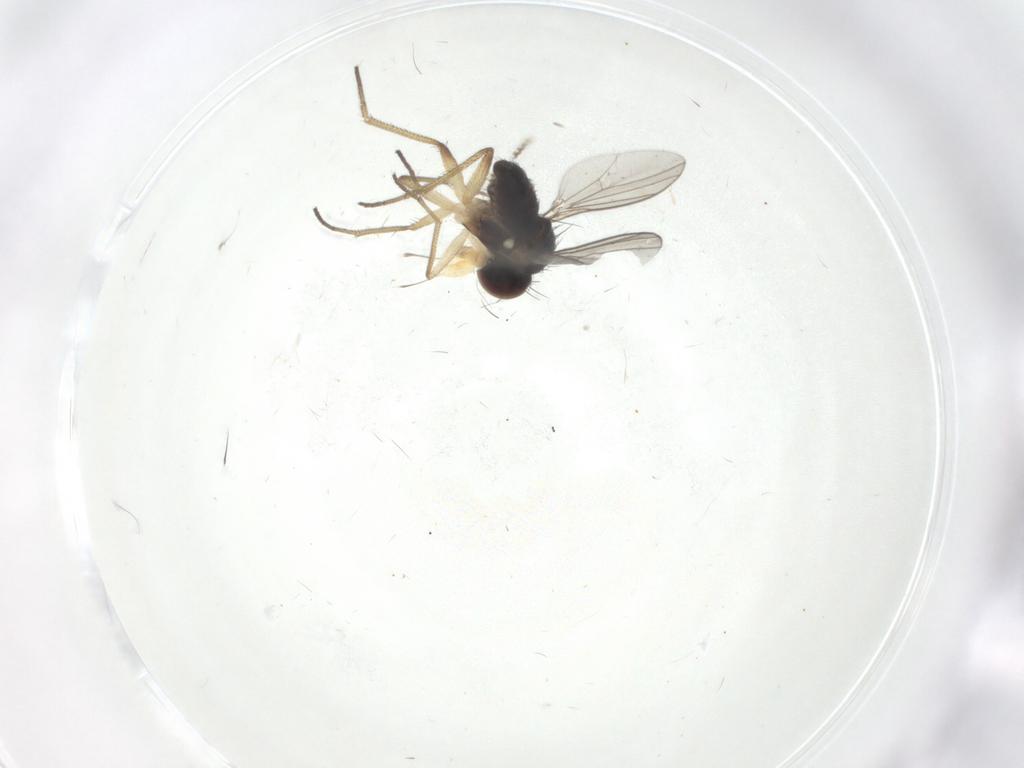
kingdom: Animalia
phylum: Arthropoda
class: Insecta
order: Diptera
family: Dolichopodidae
